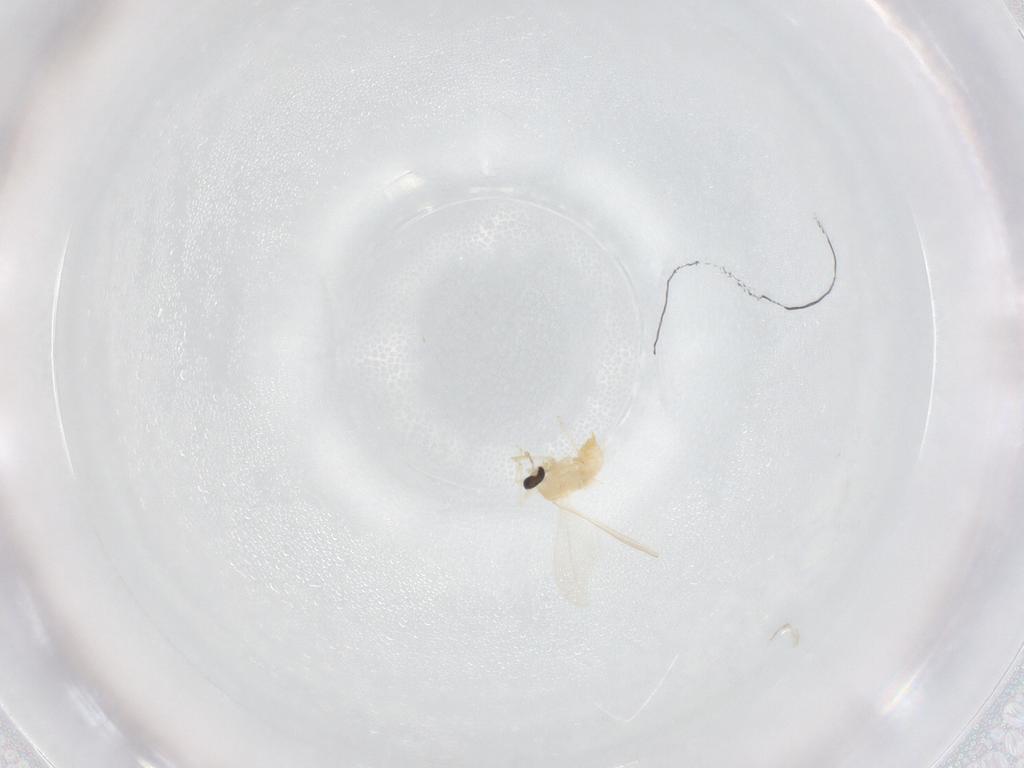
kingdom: Animalia
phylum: Arthropoda
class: Insecta
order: Diptera
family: Cecidomyiidae
